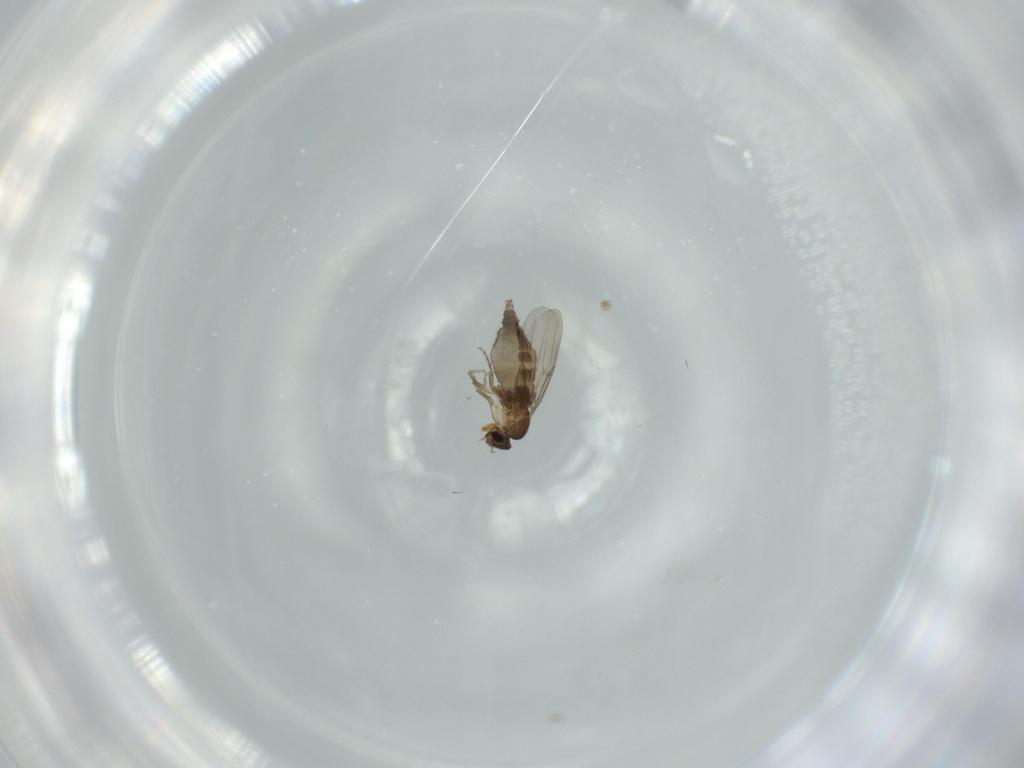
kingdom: Animalia
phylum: Arthropoda
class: Insecta
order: Diptera
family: Phoridae
